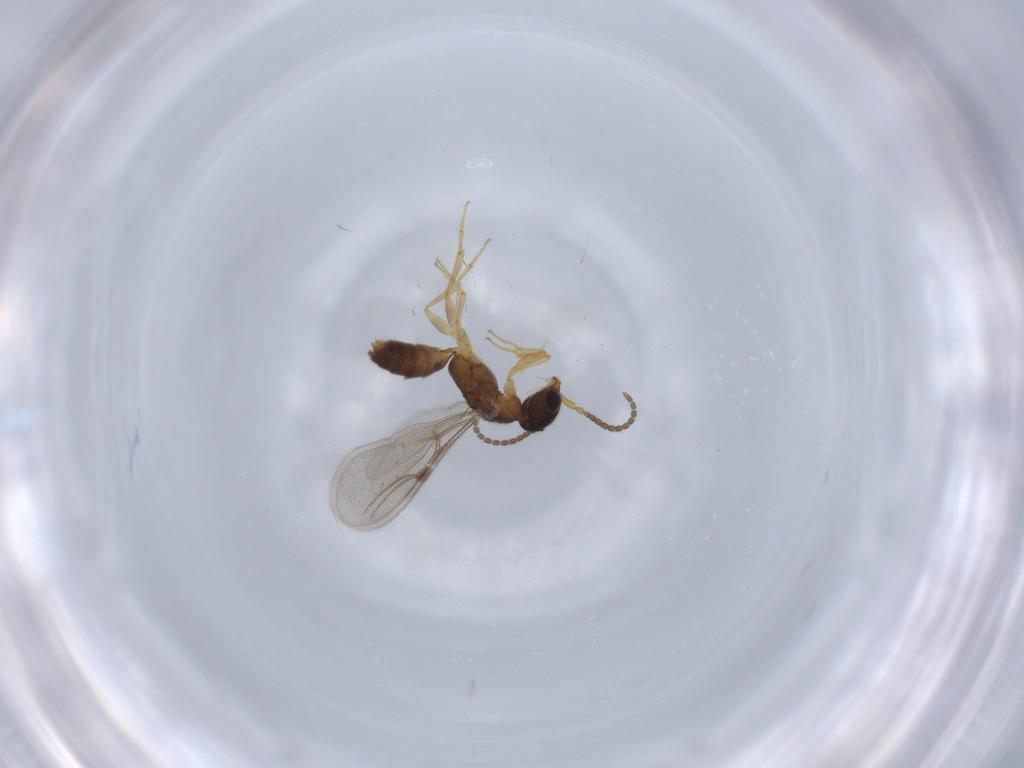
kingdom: Animalia
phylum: Arthropoda
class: Insecta
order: Hymenoptera
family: Bethylidae
